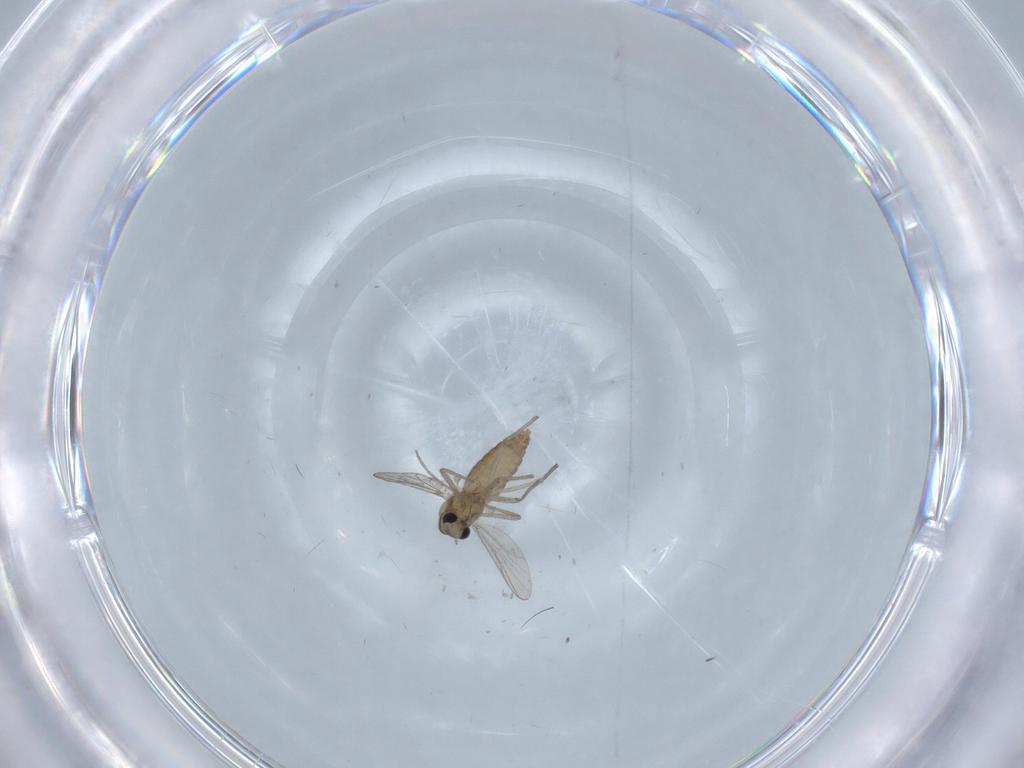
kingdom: Animalia
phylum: Arthropoda
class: Insecta
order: Diptera
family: Chironomidae
